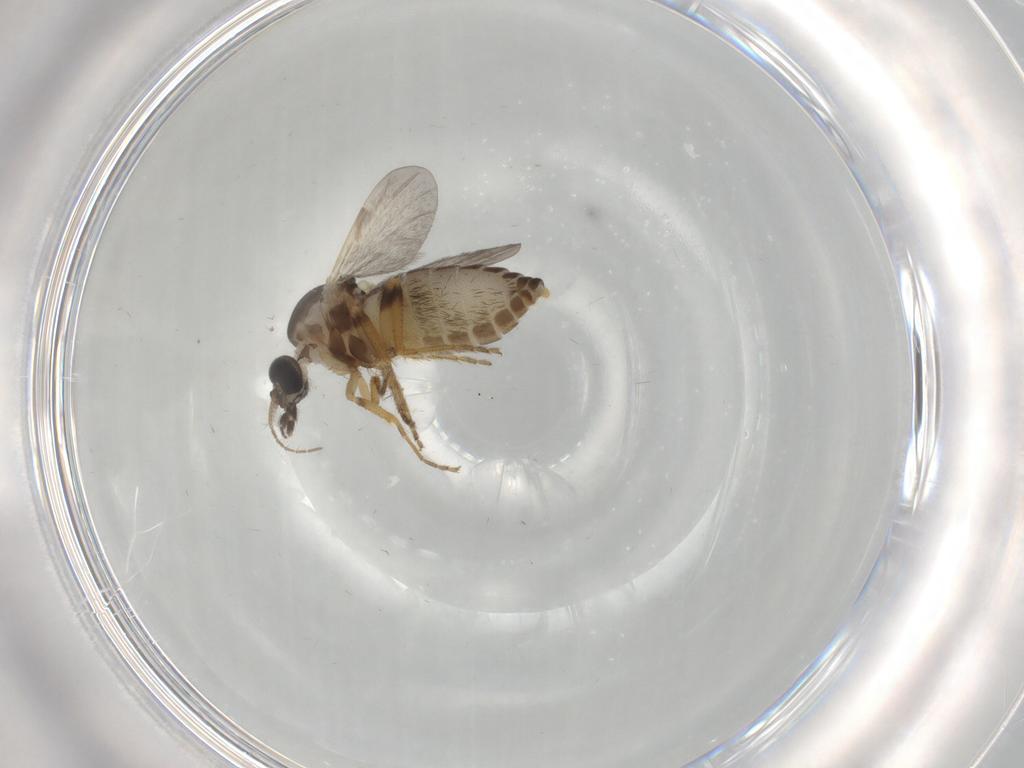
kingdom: Animalia
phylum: Arthropoda
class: Insecta
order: Diptera
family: Ceratopogonidae
